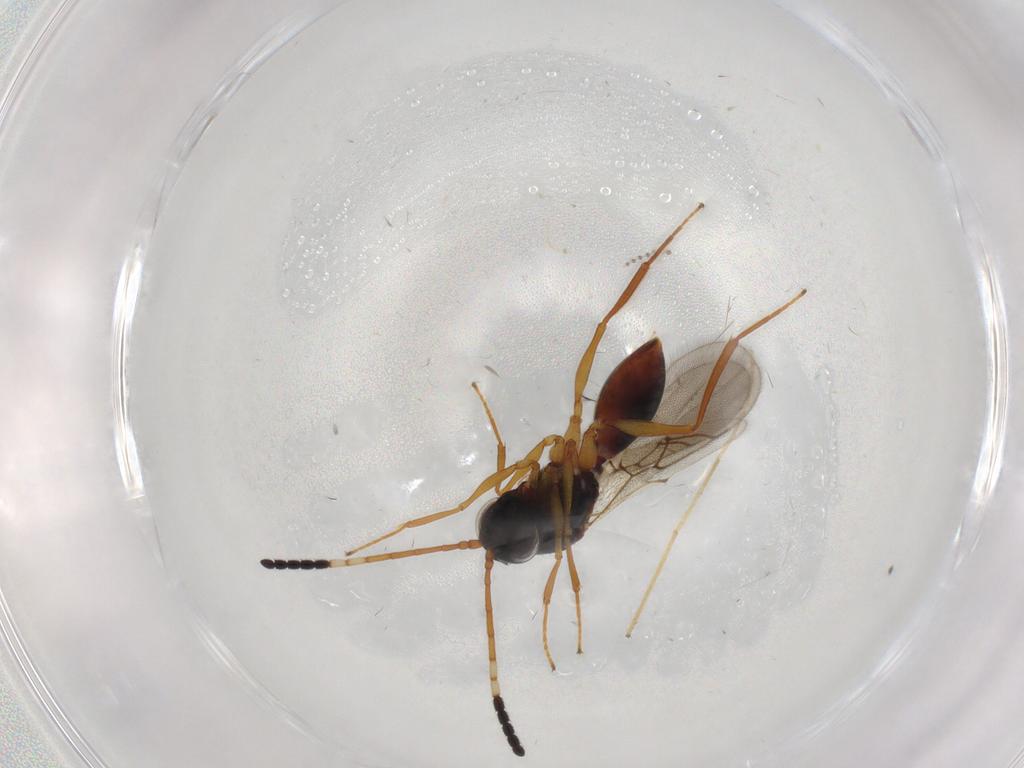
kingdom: Animalia
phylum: Arthropoda
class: Insecta
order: Hymenoptera
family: Figitidae
